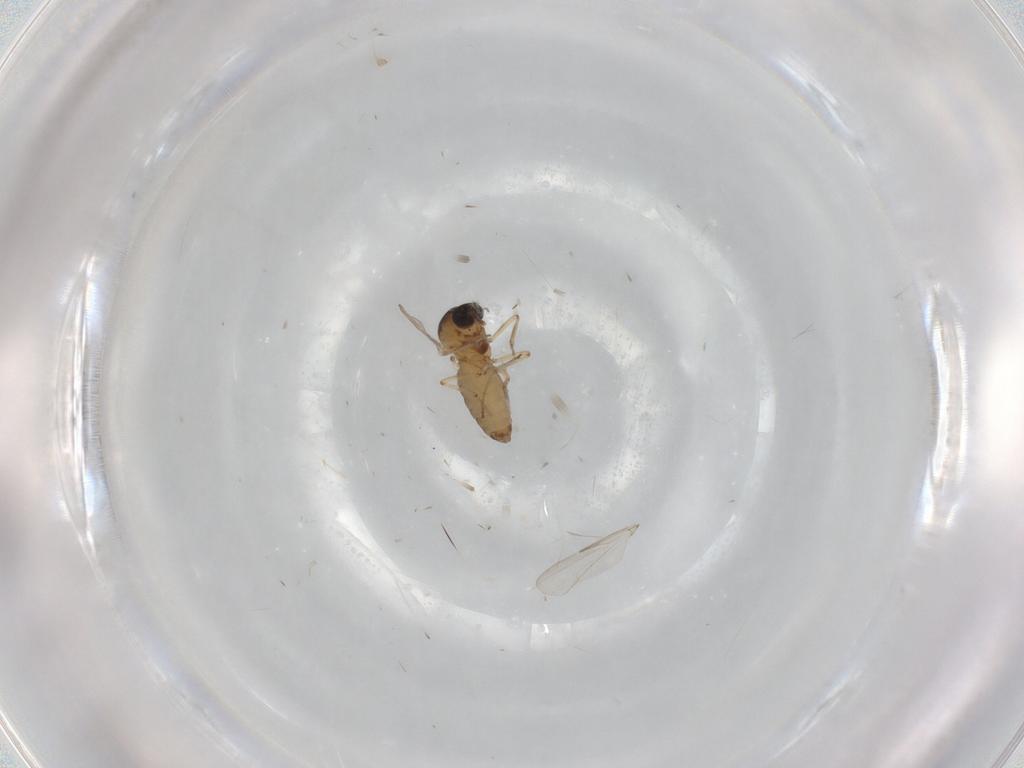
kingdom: Animalia
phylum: Arthropoda
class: Insecta
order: Diptera
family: Ceratopogonidae
